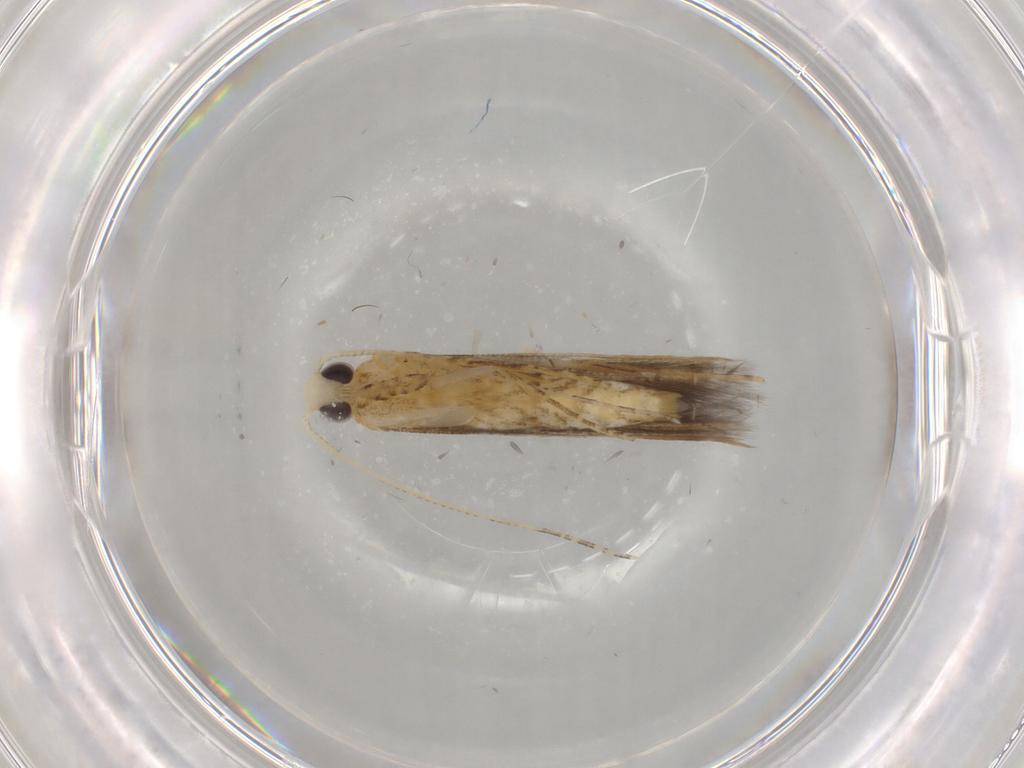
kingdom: Animalia
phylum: Arthropoda
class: Insecta
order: Lepidoptera
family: Batrachedridae
